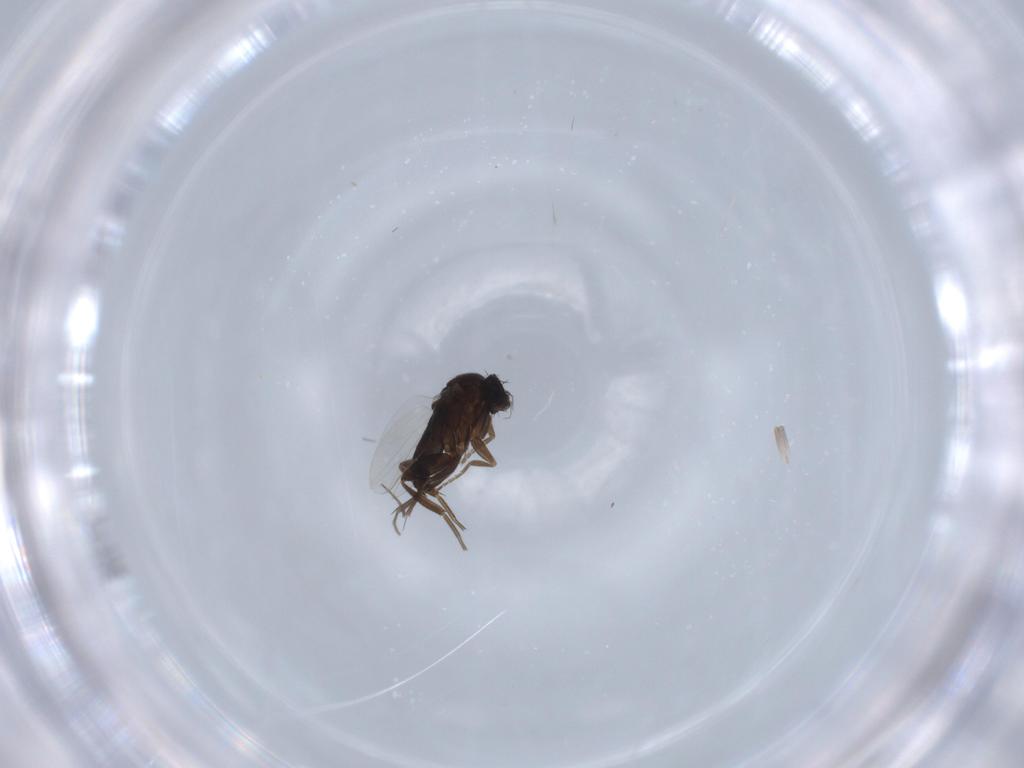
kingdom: Animalia
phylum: Arthropoda
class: Insecta
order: Diptera
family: Phoridae
